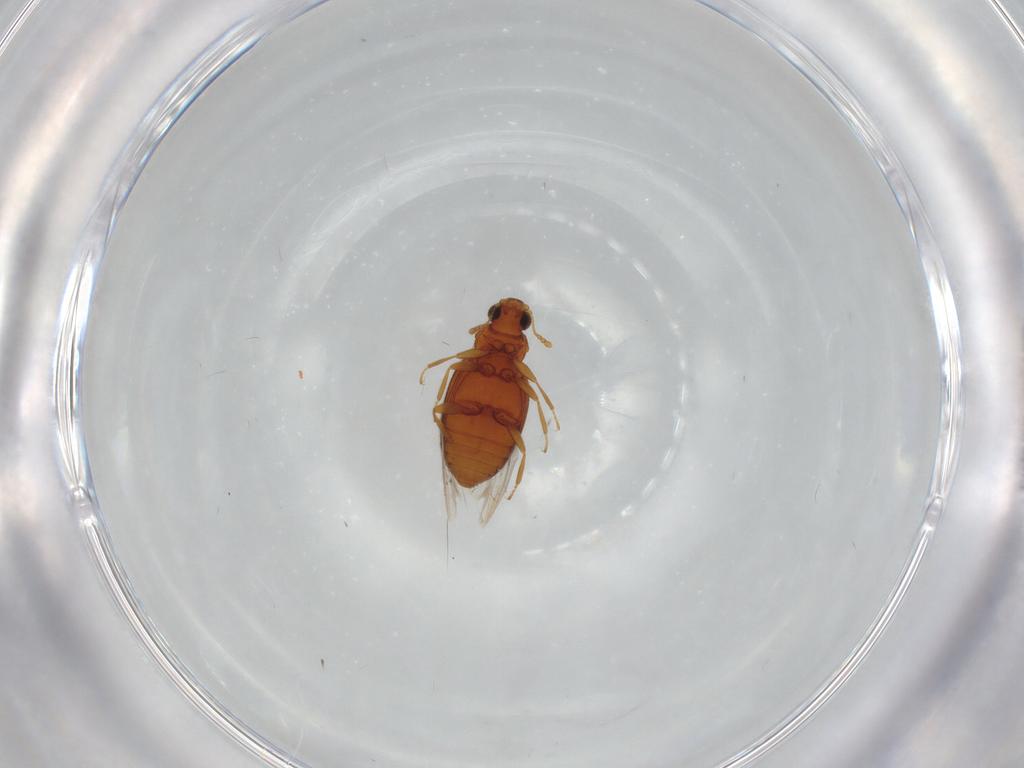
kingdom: Animalia
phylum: Arthropoda
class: Insecta
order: Coleoptera
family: Latridiidae
